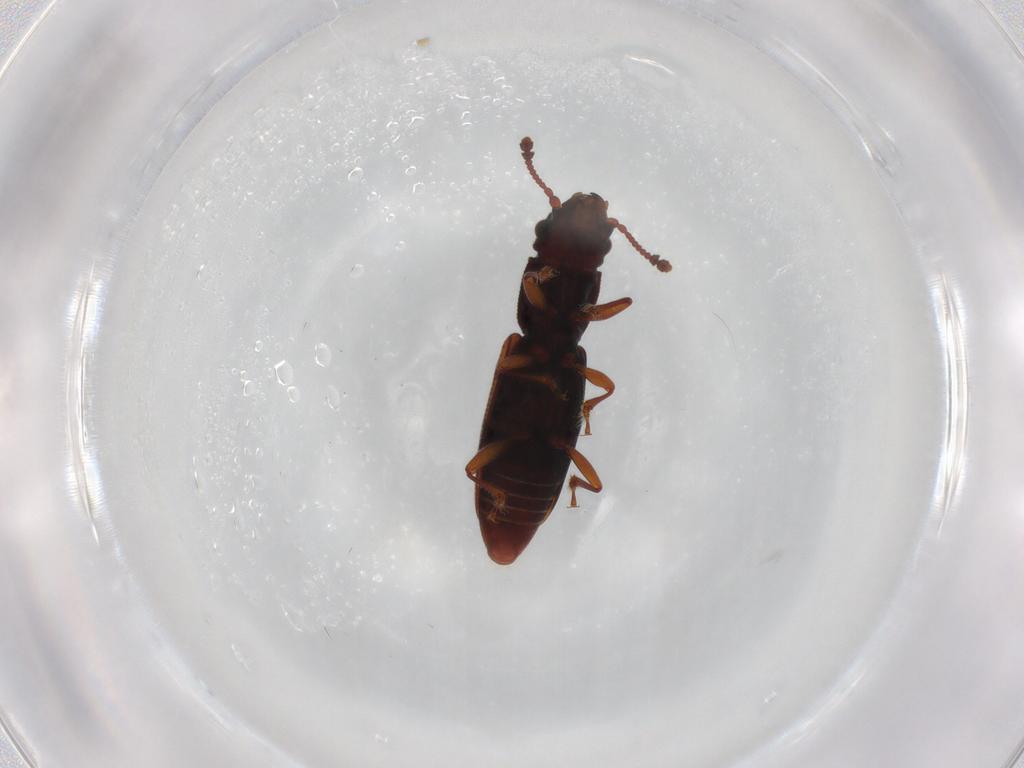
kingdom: Animalia
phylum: Arthropoda
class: Insecta
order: Coleoptera
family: Monotomidae
